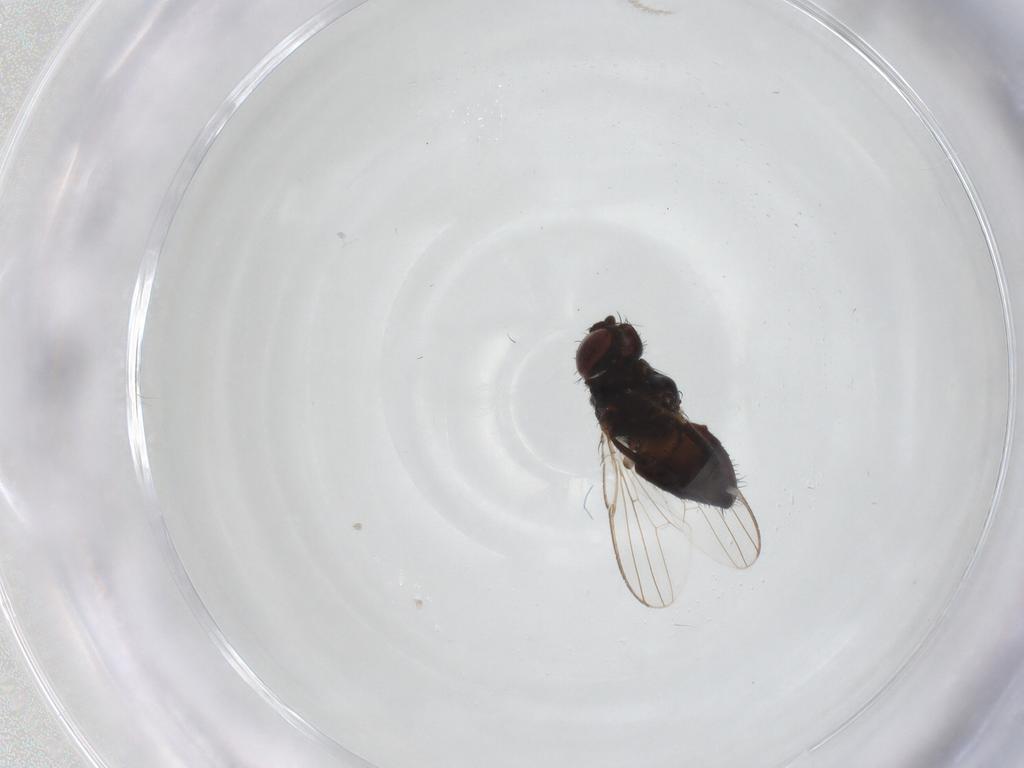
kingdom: Animalia
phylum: Arthropoda
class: Insecta
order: Diptera
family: Chloropidae
